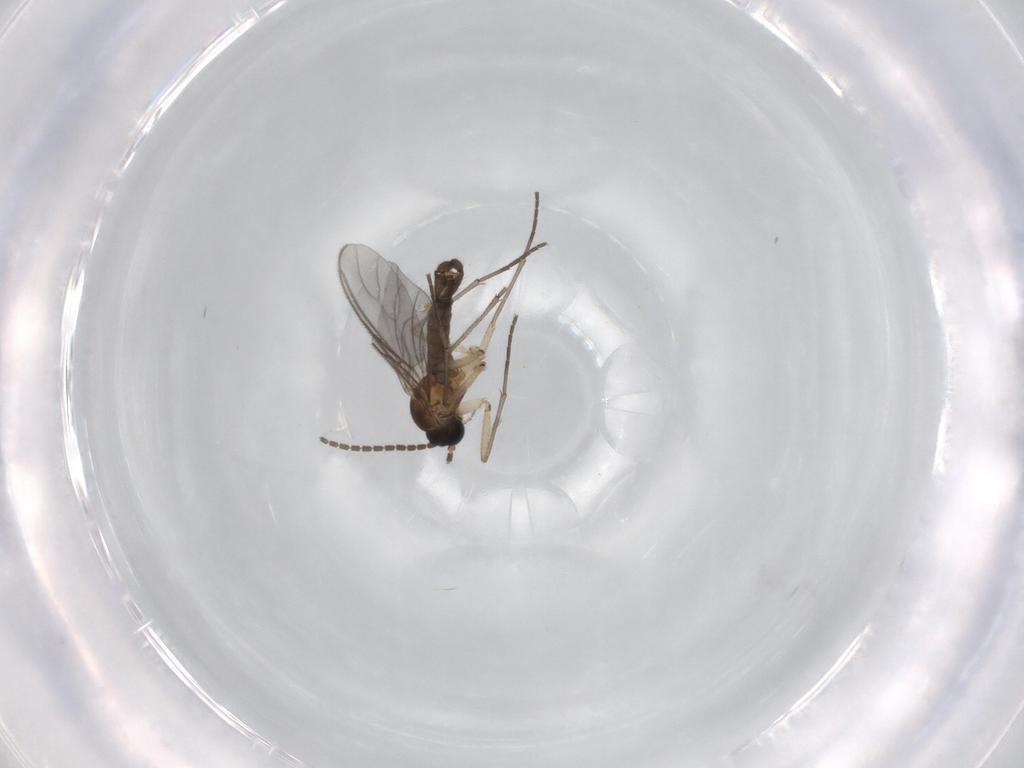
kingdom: Animalia
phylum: Arthropoda
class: Insecta
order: Diptera
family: Sciaridae
